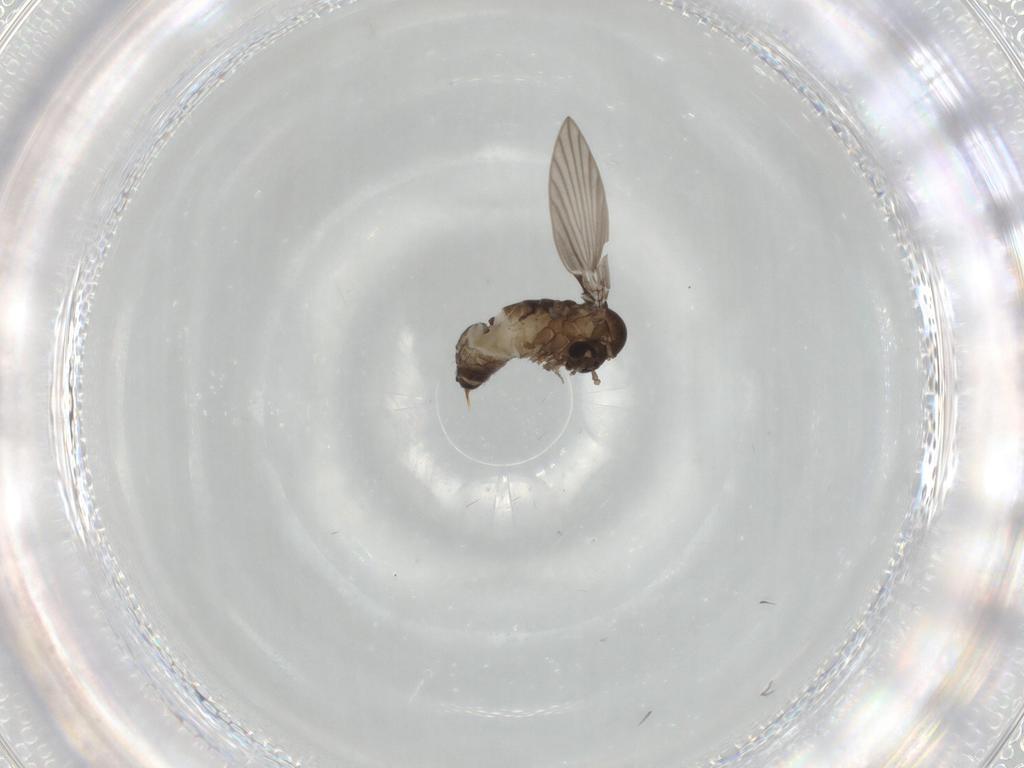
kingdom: Animalia
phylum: Arthropoda
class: Insecta
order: Diptera
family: Psychodidae
